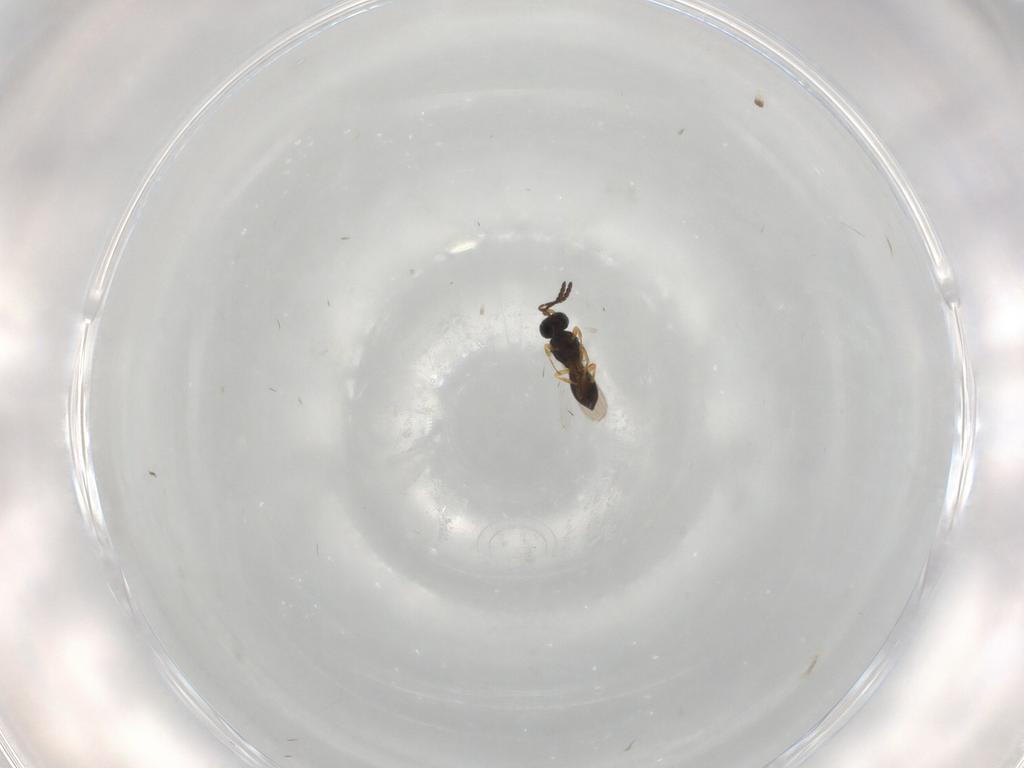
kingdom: Animalia
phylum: Arthropoda
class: Insecta
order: Hymenoptera
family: Scelionidae
